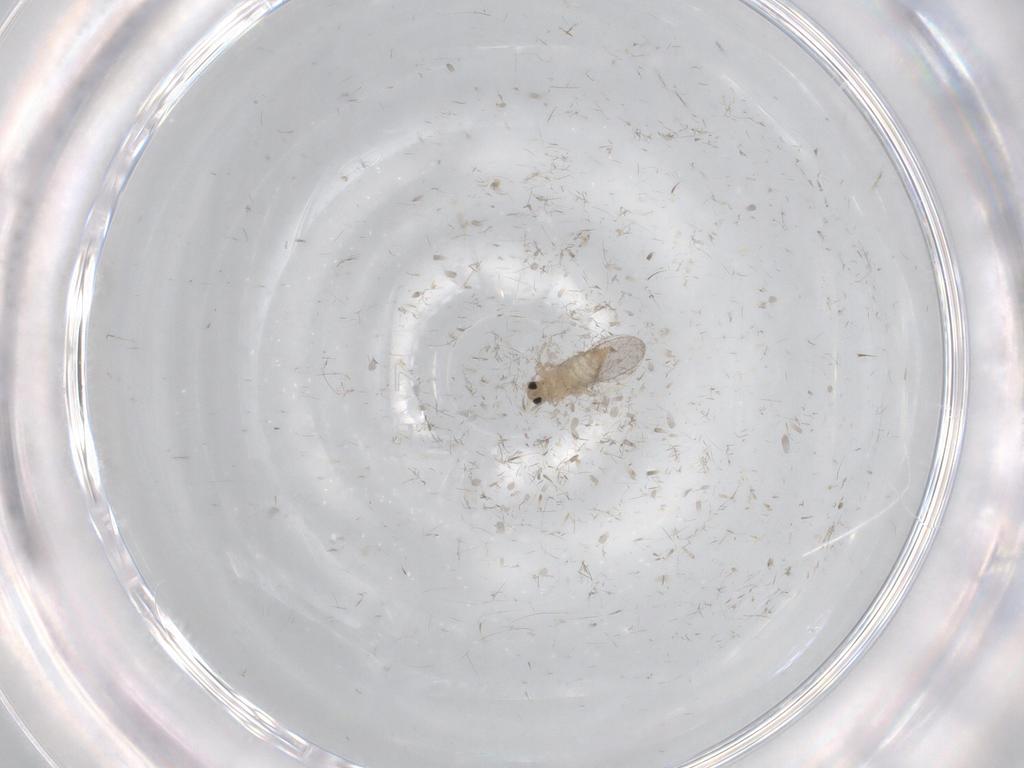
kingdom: Animalia
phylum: Arthropoda
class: Insecta
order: Diptera
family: Cecidomyiidae
